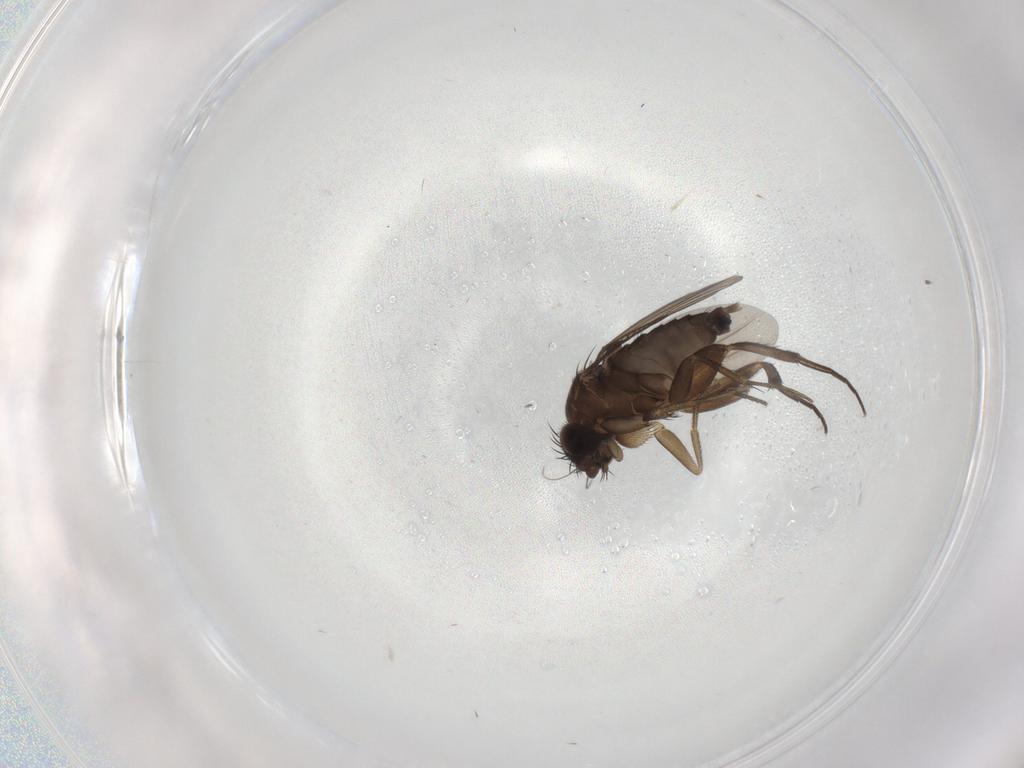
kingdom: Animalia
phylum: Arthropoda
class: Insecta
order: Diptera
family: Phoridae
